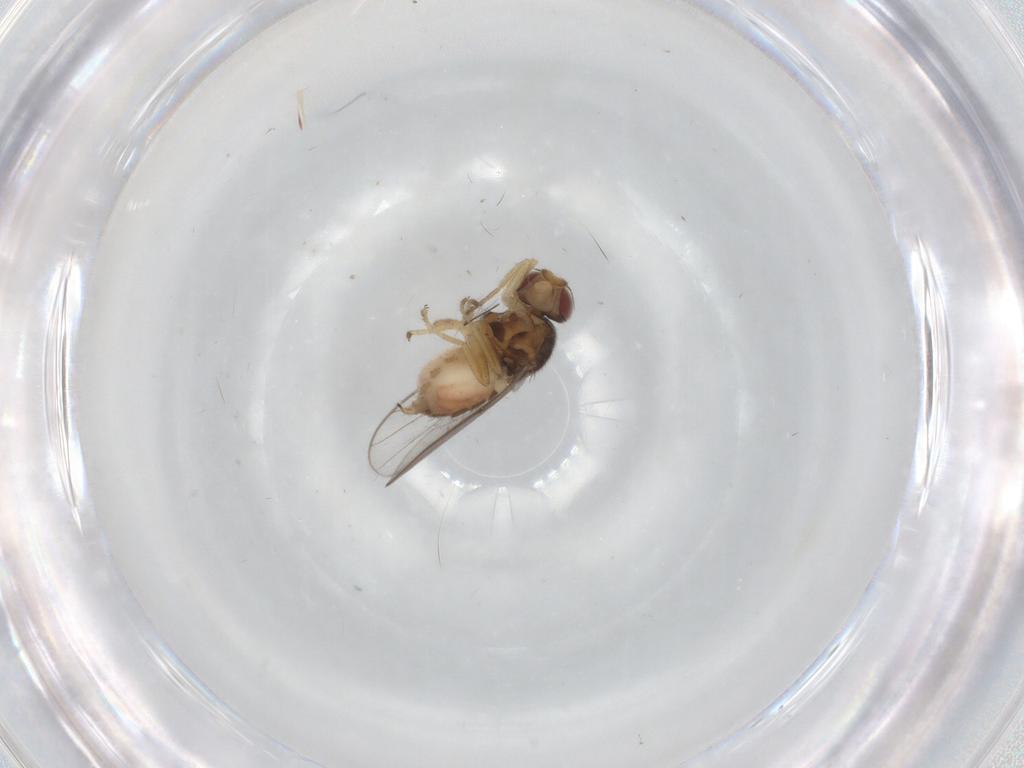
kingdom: Animalia
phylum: Arthropoda
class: Insecta
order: Diptera
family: Chloropidae
